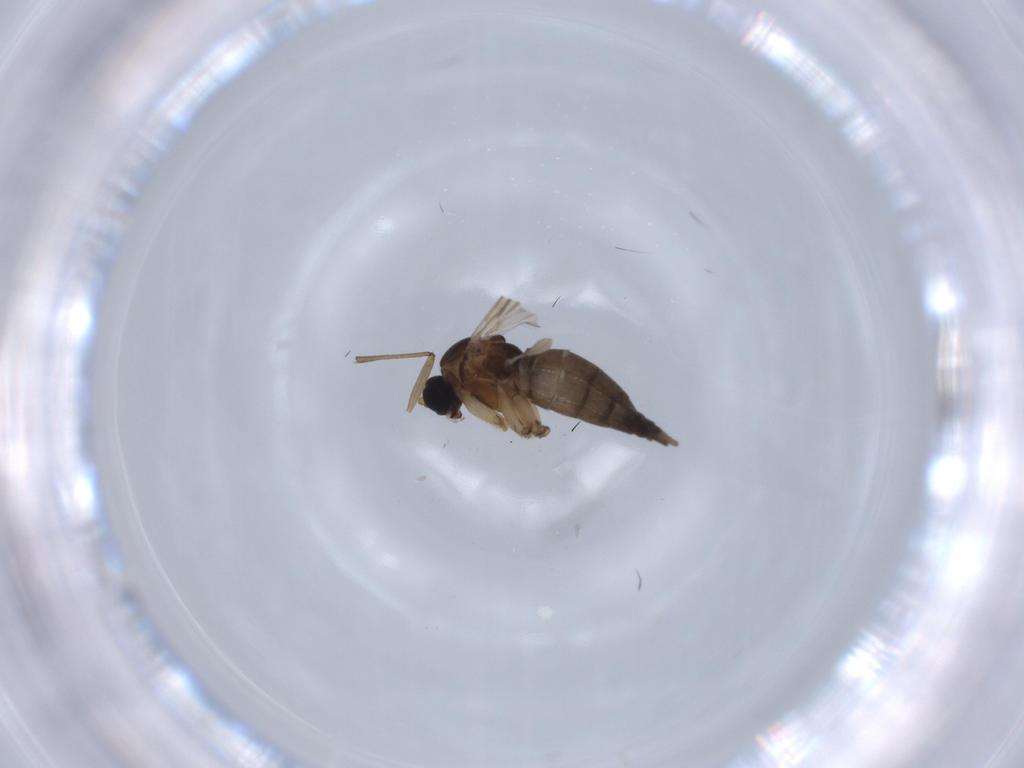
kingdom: Animalia
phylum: Arthropoda
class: Insecta
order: Diptera
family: Sciaridae
